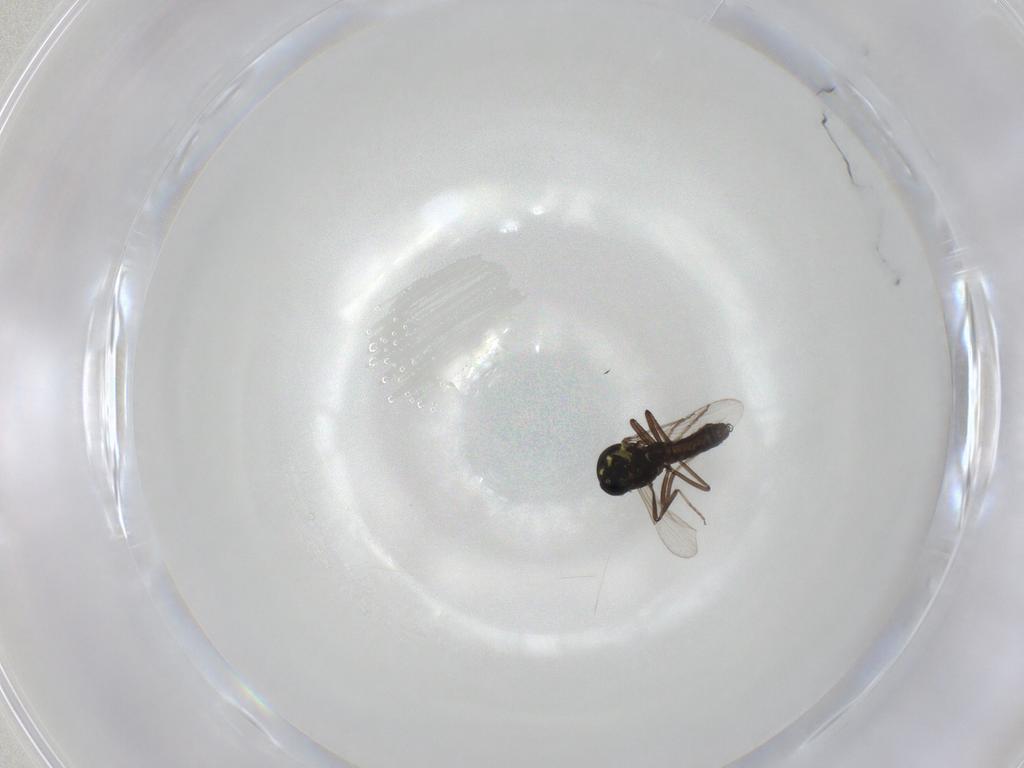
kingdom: Animalia
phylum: Arthropoda
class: Insecta
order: Diptera
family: Ceratopogonidae
